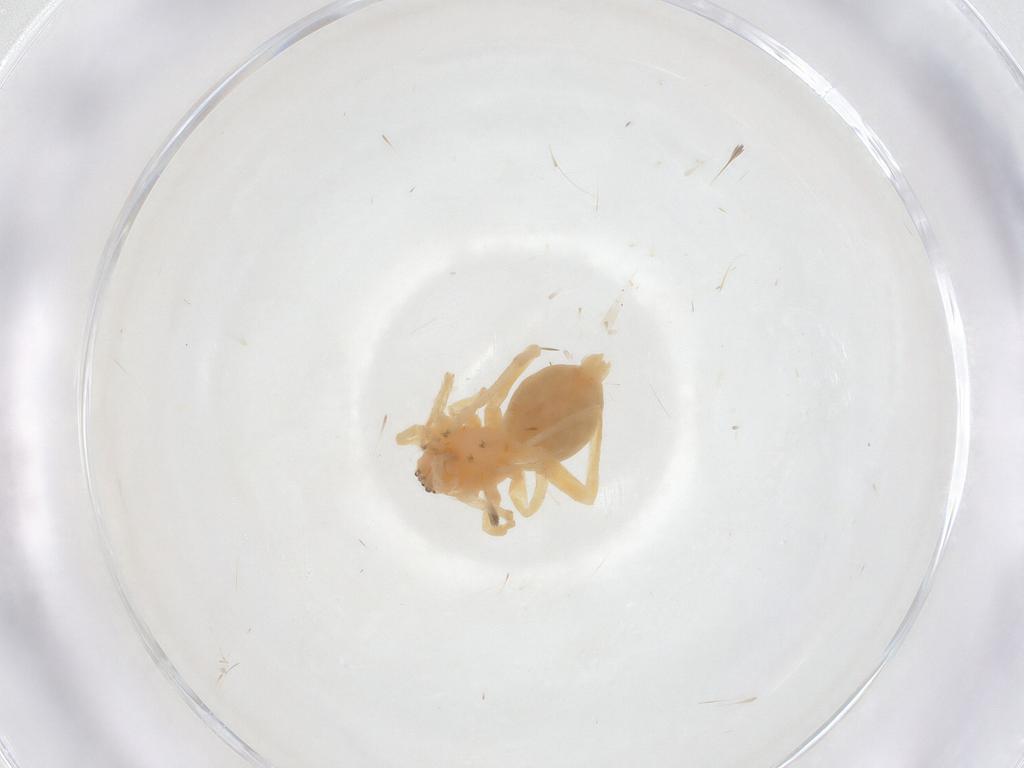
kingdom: Animalia
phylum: Arthropoda
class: Arachnida
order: Araneae
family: Anyphaenidae
